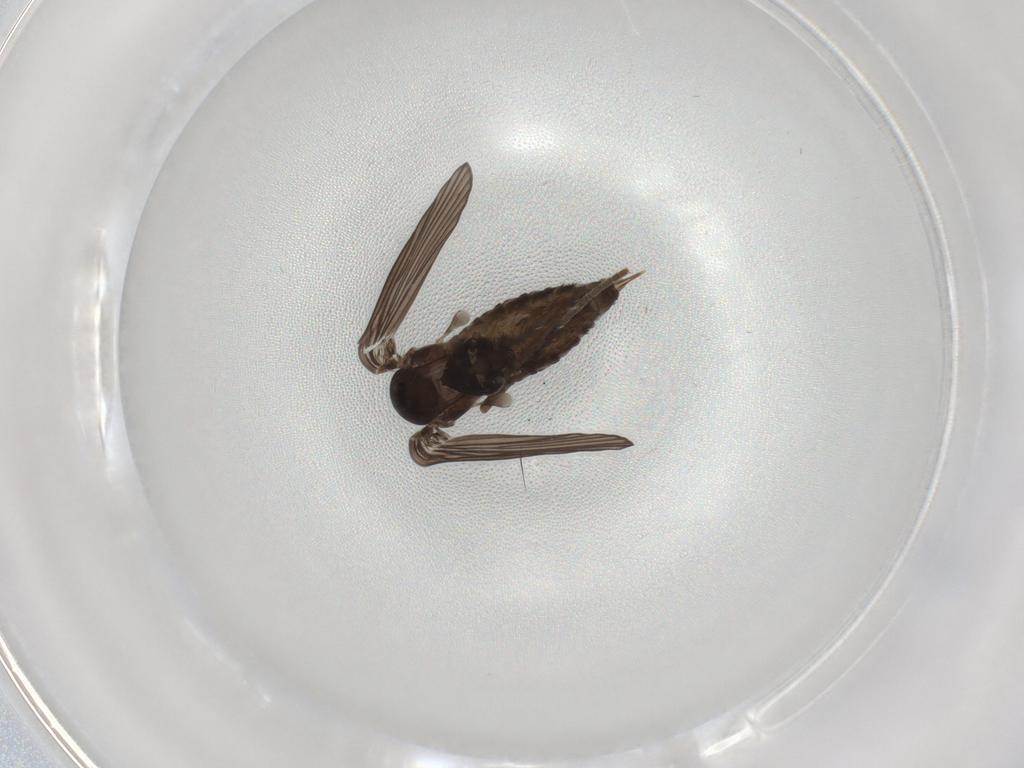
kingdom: Animalia
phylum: Arthropoda
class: Insecta
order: Diptera
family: Psychodidae
